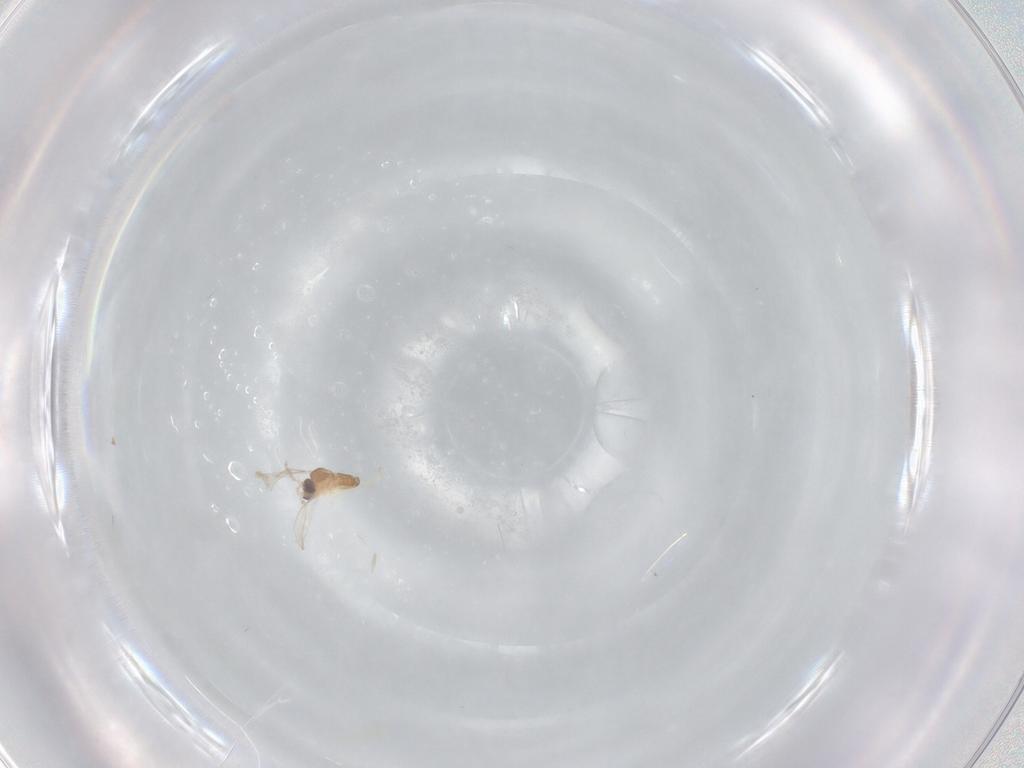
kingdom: Animalia
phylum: Arthropoda
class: Insecta
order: Diptera
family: Cecidomyiidae
